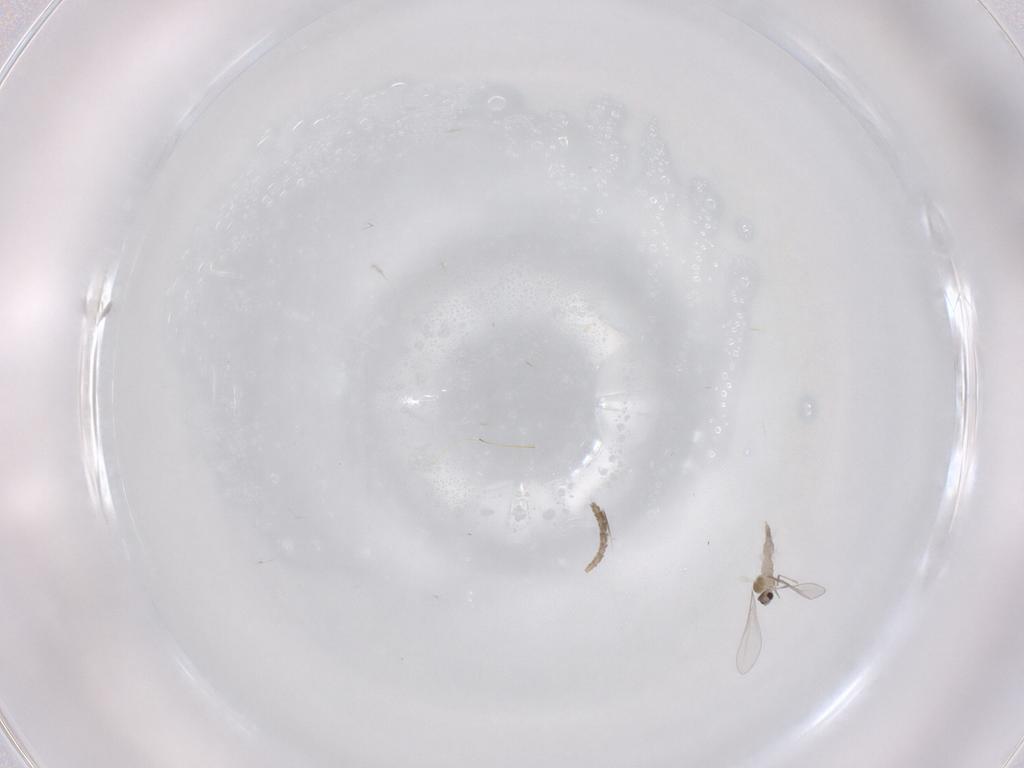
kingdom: Animalia
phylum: Arthropoda
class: Insecta
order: Diptera
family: Cecidomyiidae
